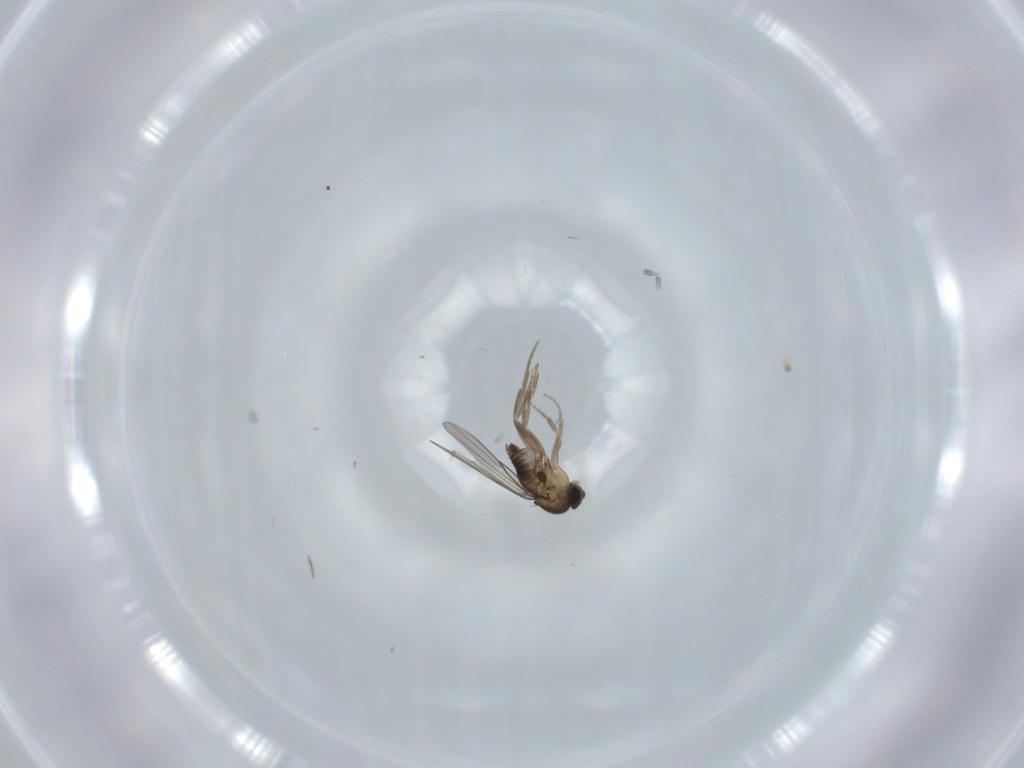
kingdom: Animalia
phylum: Arthropoda
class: Insecta
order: Diptera
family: Phoridae
